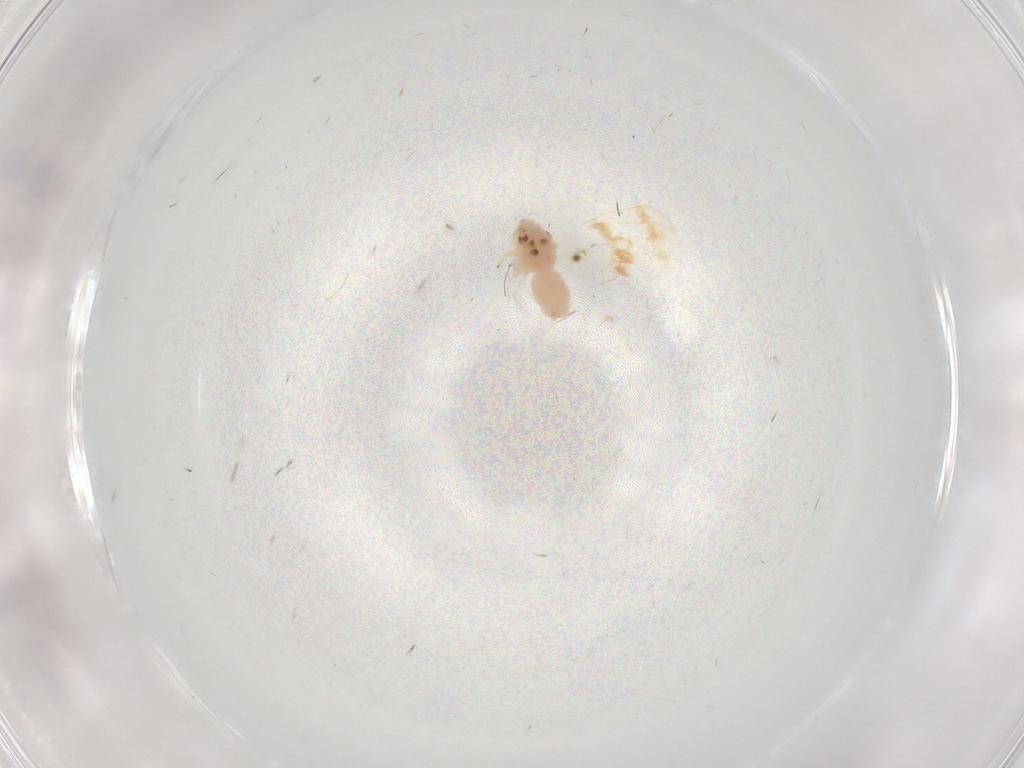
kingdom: Animalia
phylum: Arthropoda
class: Insecta
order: Hemiptera
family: Aleyrodidae
